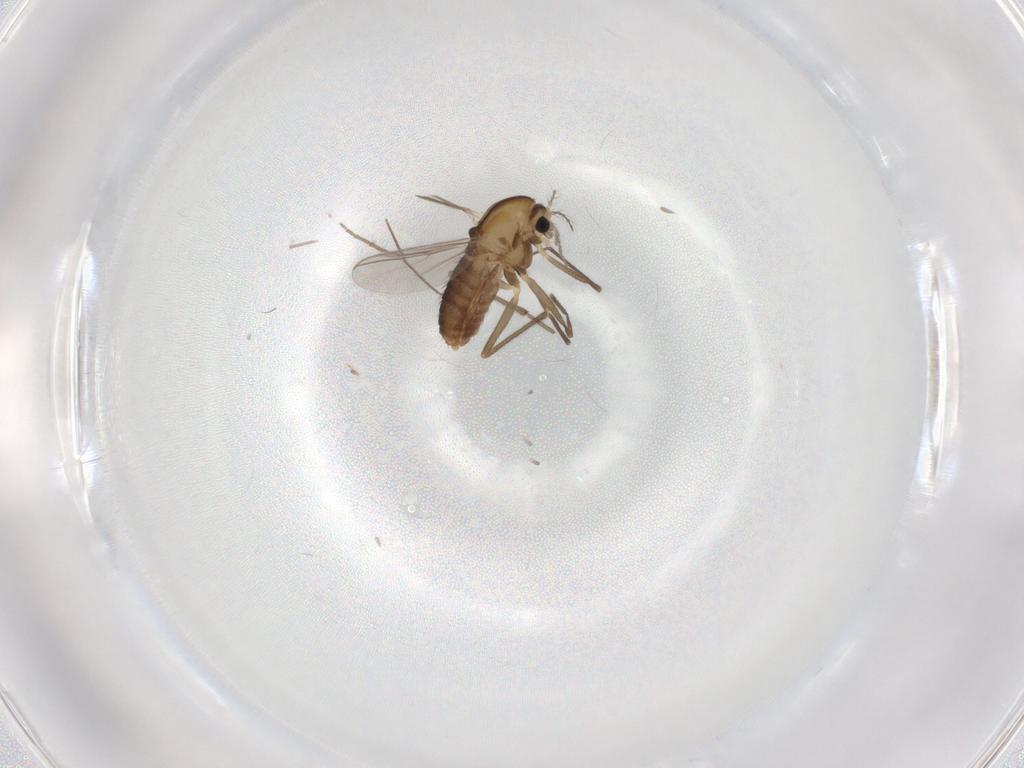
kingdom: Animalia
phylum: Arthropoda
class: Insecta
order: Diptera
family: Chironomidae
